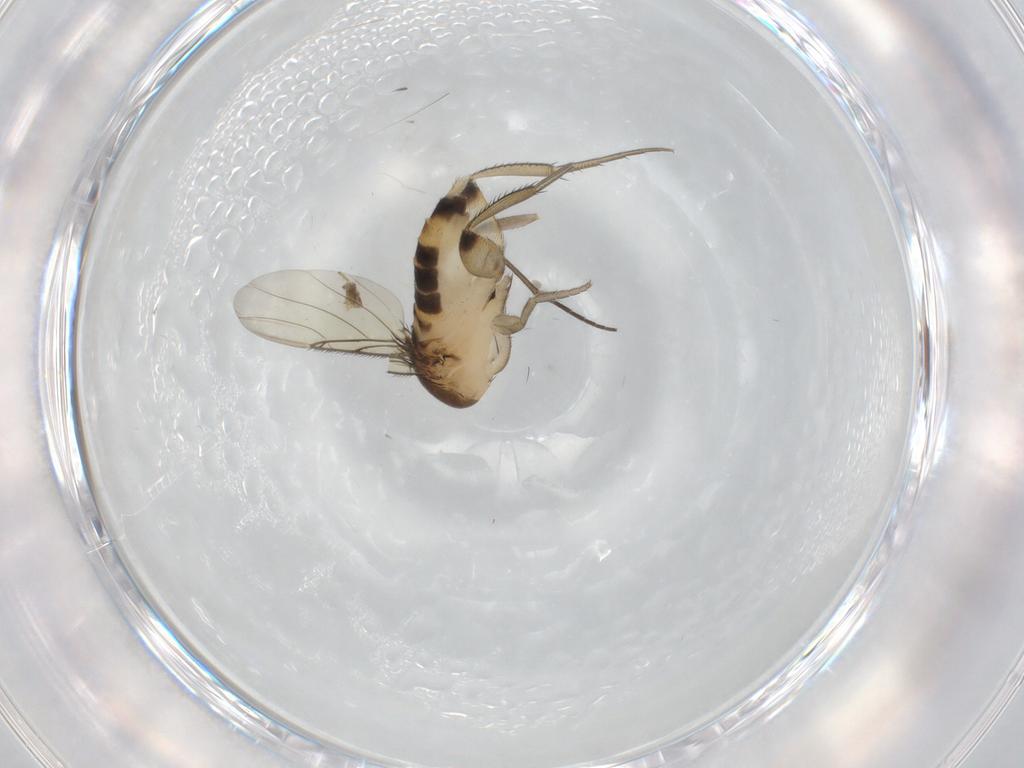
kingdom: Animalia
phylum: Arthropoda
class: Insecta
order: Diptera
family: Phoridae
